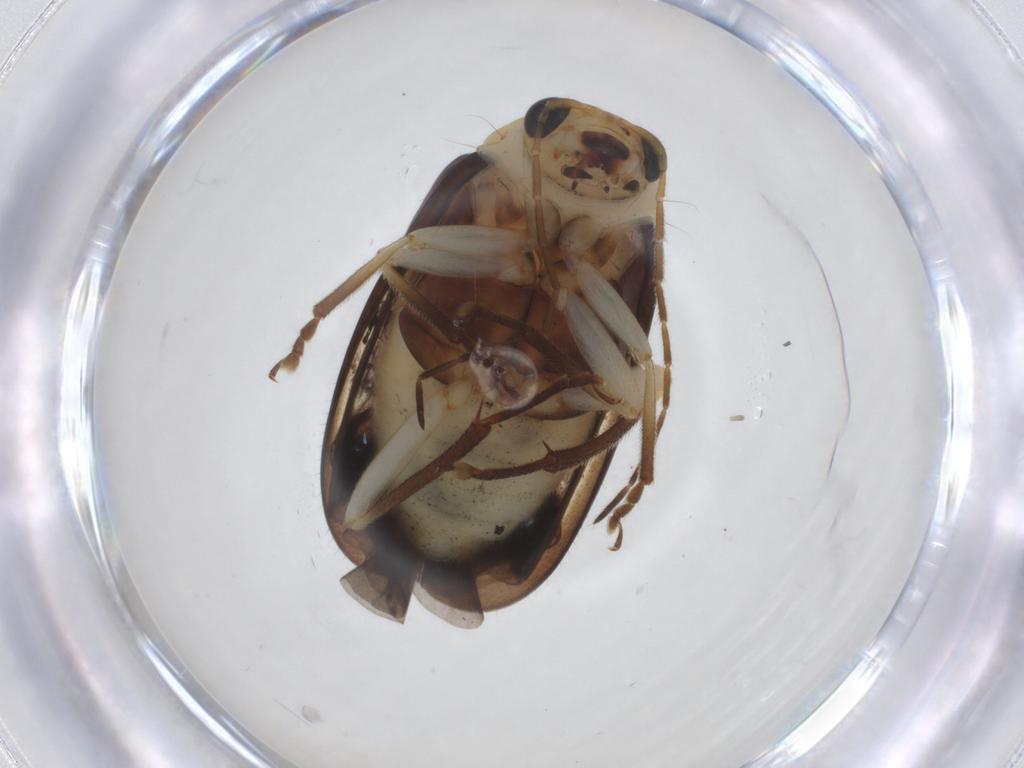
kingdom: Animalia
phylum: Arthropoda
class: Insecta
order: Coleoptera
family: Chrysomelidae
